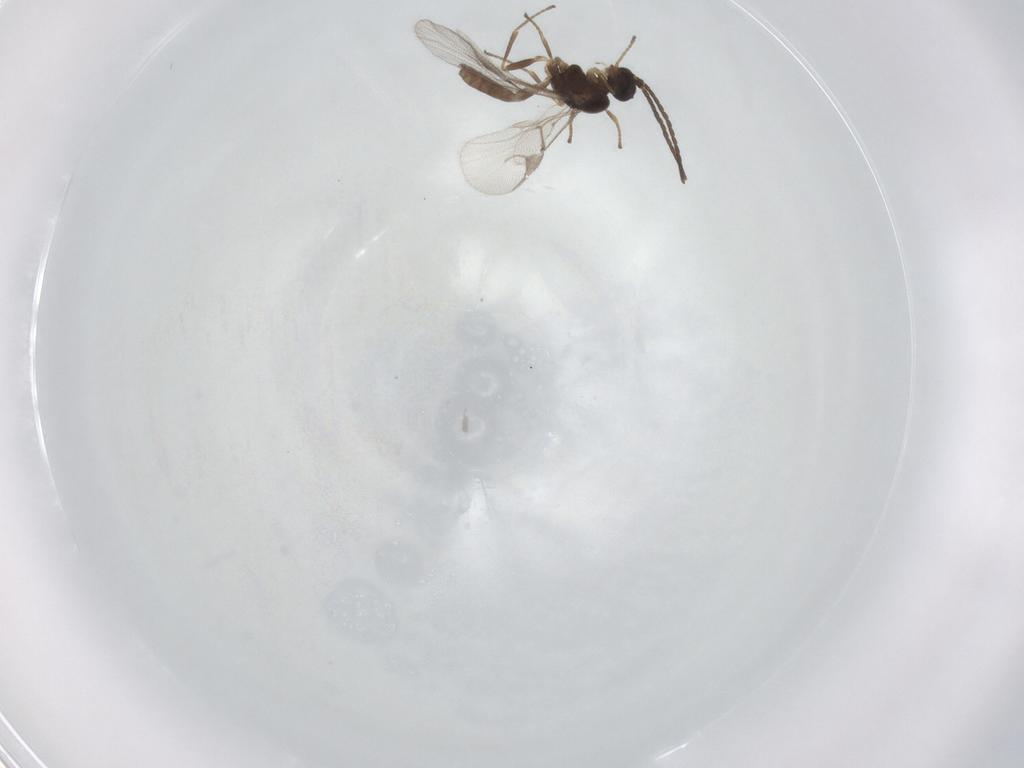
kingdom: Animalia
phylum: Arthropoda
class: Insecta
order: Hymenoptera
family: Braconidae
